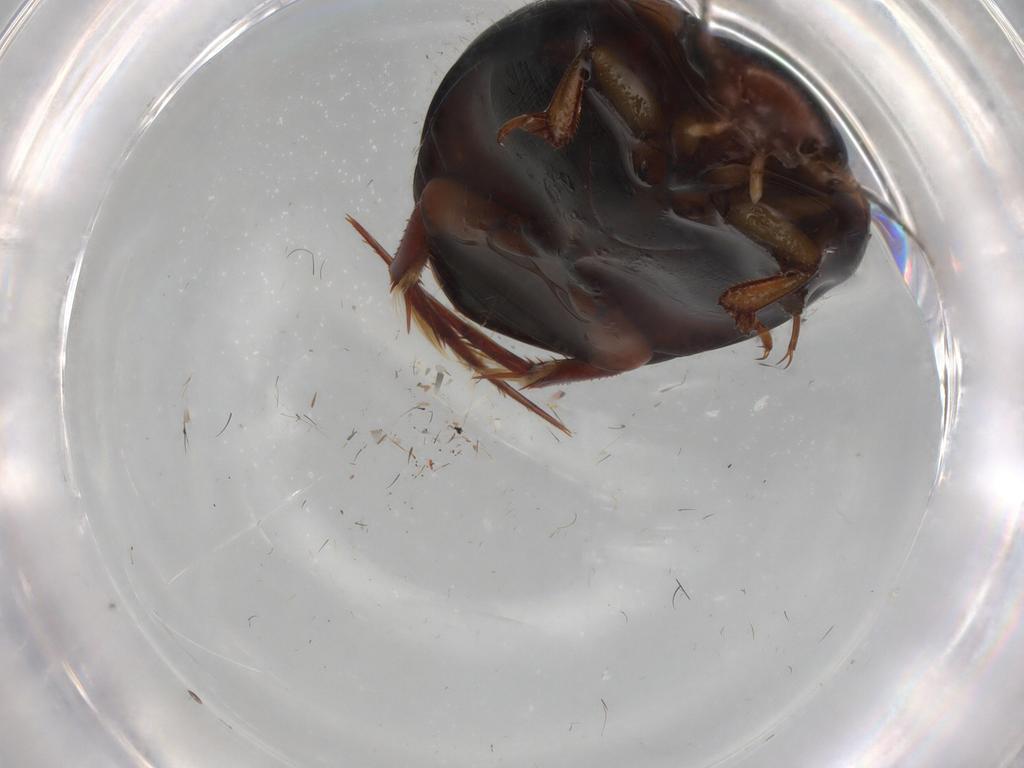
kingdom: Animalia
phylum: Arthropoda
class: Insecta
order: Coleoptera
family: Dytiscidae
